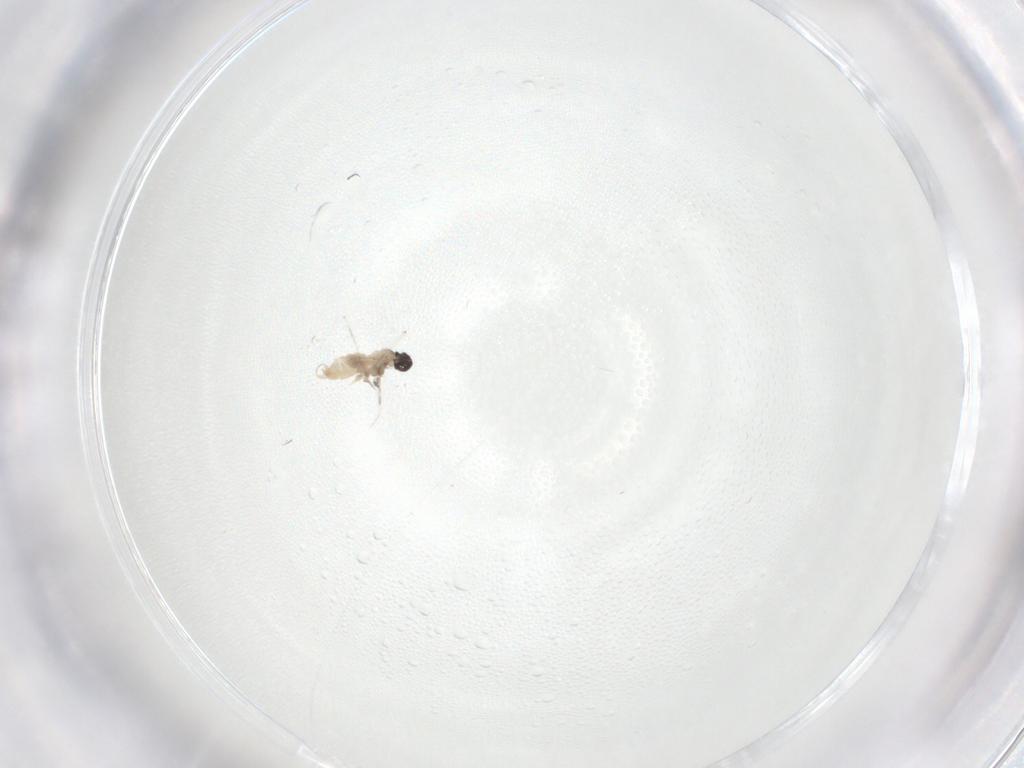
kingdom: Animalia
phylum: Arthropoda
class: Insecta
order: Diptera
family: Cecidomyiidae
